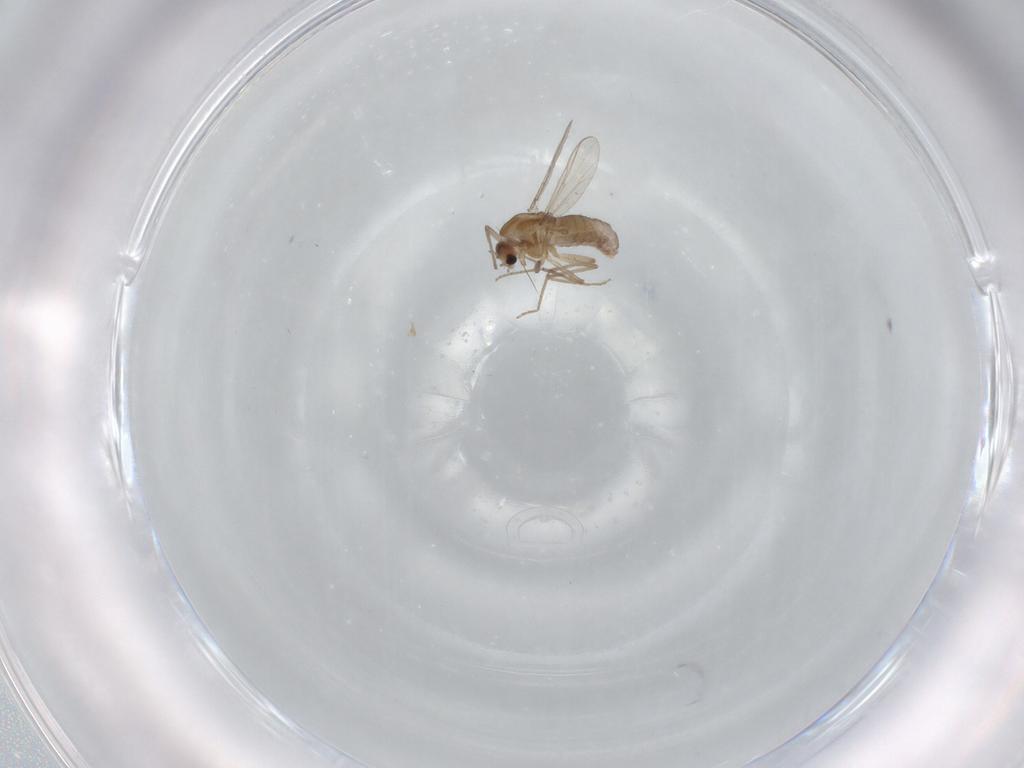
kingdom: Animalia
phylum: Arthropoda
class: Insecta
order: Diptera
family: Chironomidae
